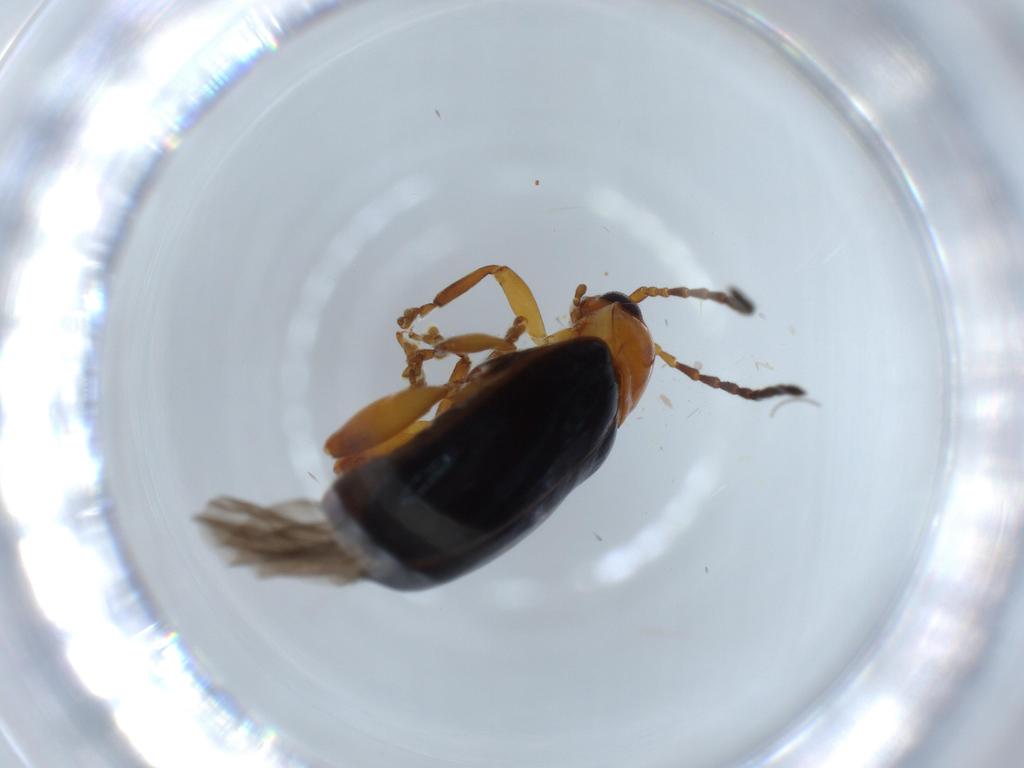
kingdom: Animalia
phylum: Arthropoda
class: Insecta
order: Coleoptera
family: Chrysomelidae
